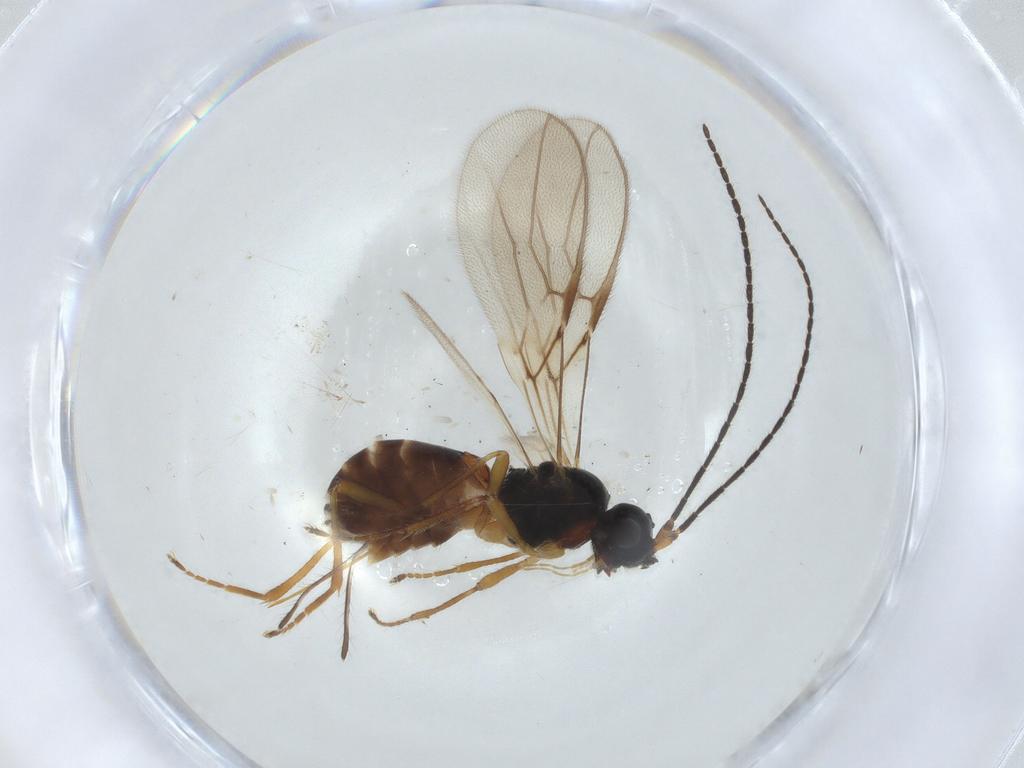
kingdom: Animalia
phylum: Arthropoda
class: Insecta
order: Hymenoptera
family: Braconidae
